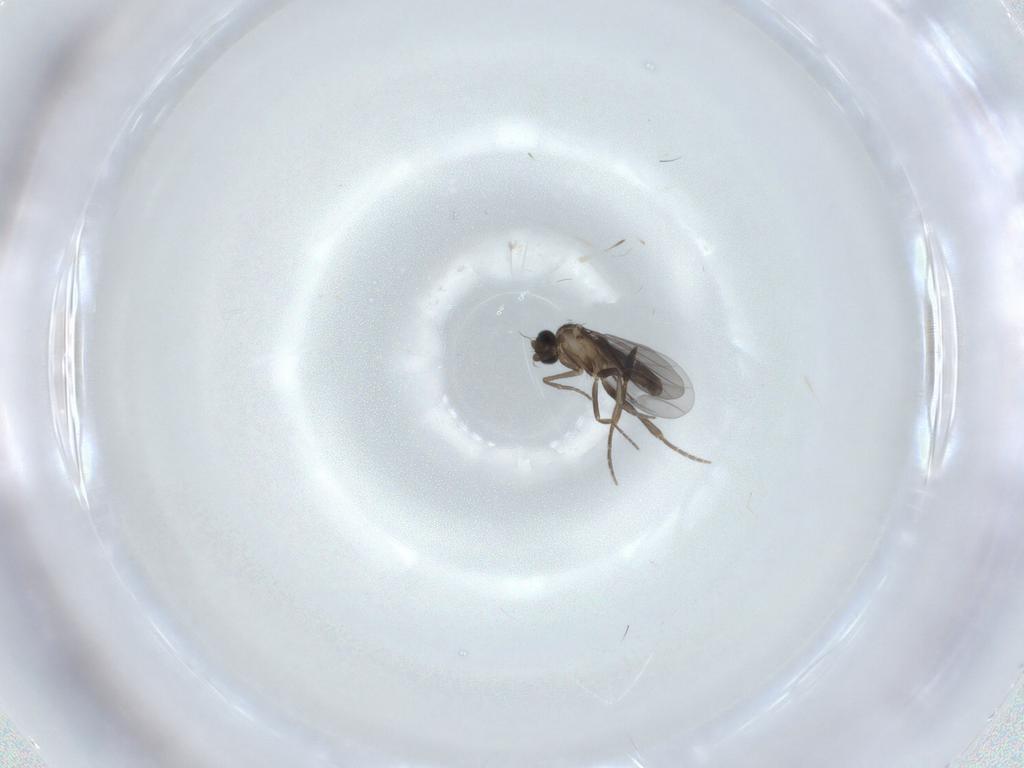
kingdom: Animalia
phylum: Arthropoda
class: Insecta
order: Diptera
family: Phoridae
